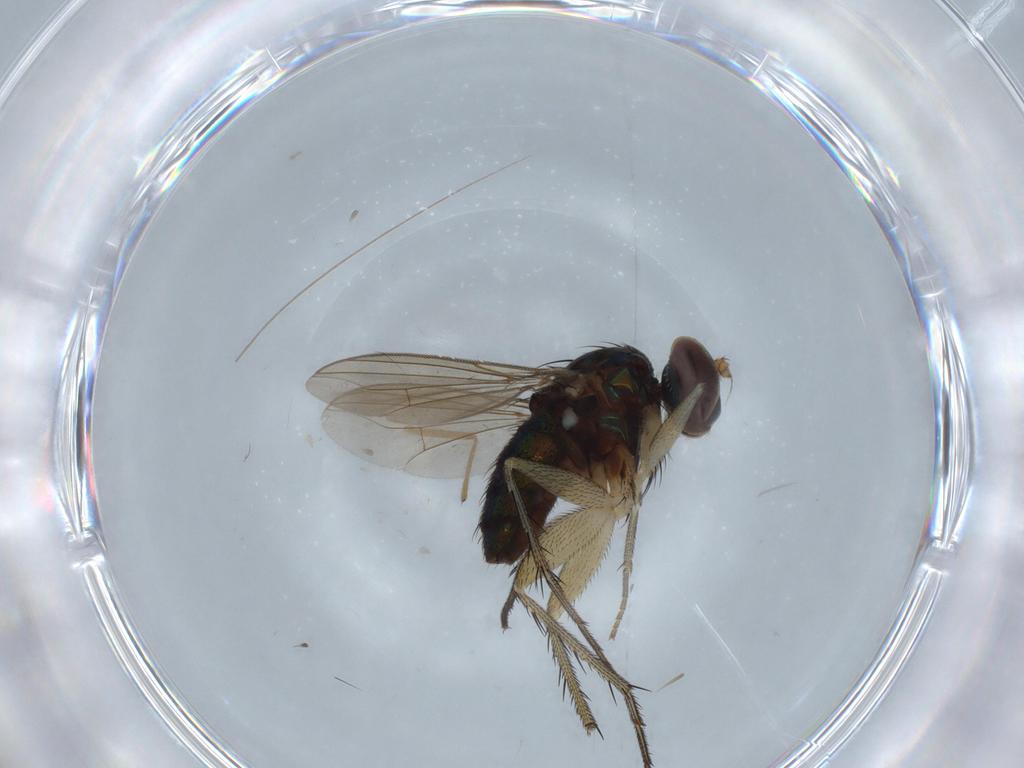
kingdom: Animalia
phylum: Arthropoda
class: Insecta
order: Diptera
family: Dolichopodidae
